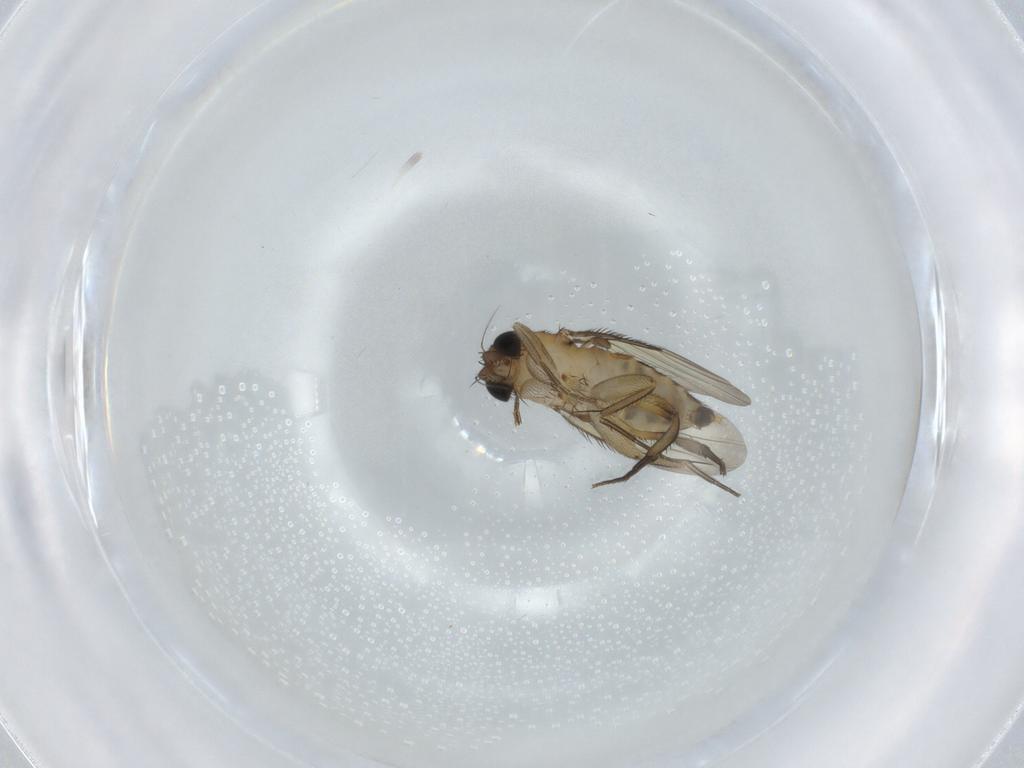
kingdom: Animalia
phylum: Arthropoda
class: Insecta
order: Diptera
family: Phoridae
